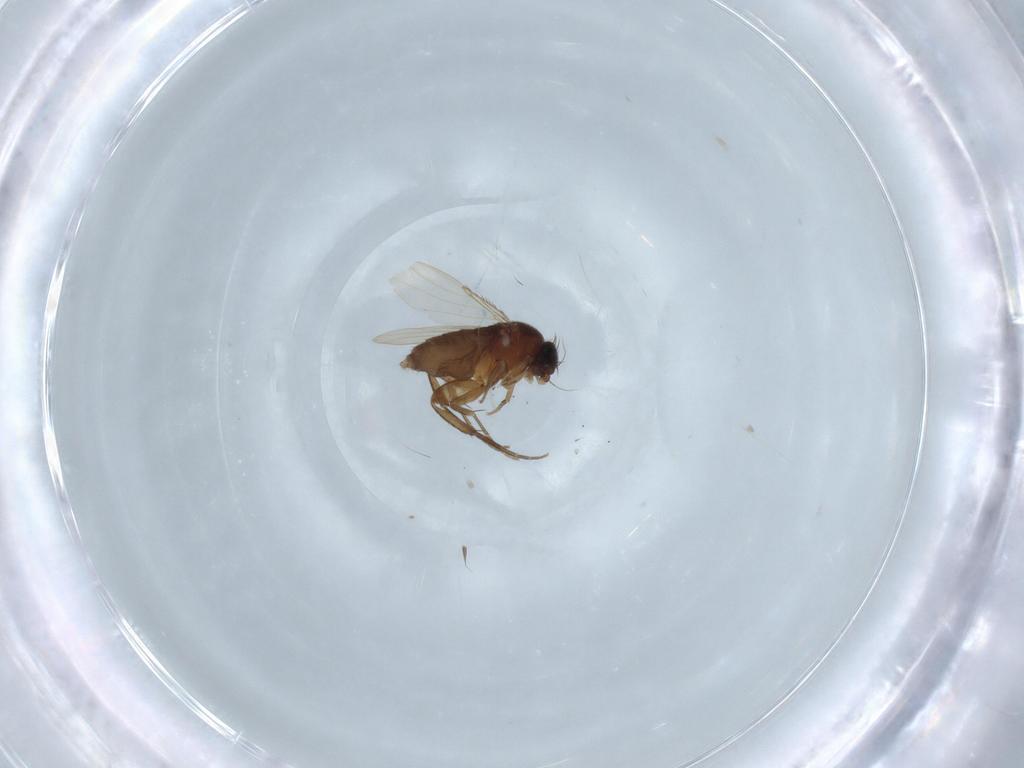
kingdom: Animalia
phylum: Arthropoda
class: Insecta
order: Diptera
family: Phoridae
